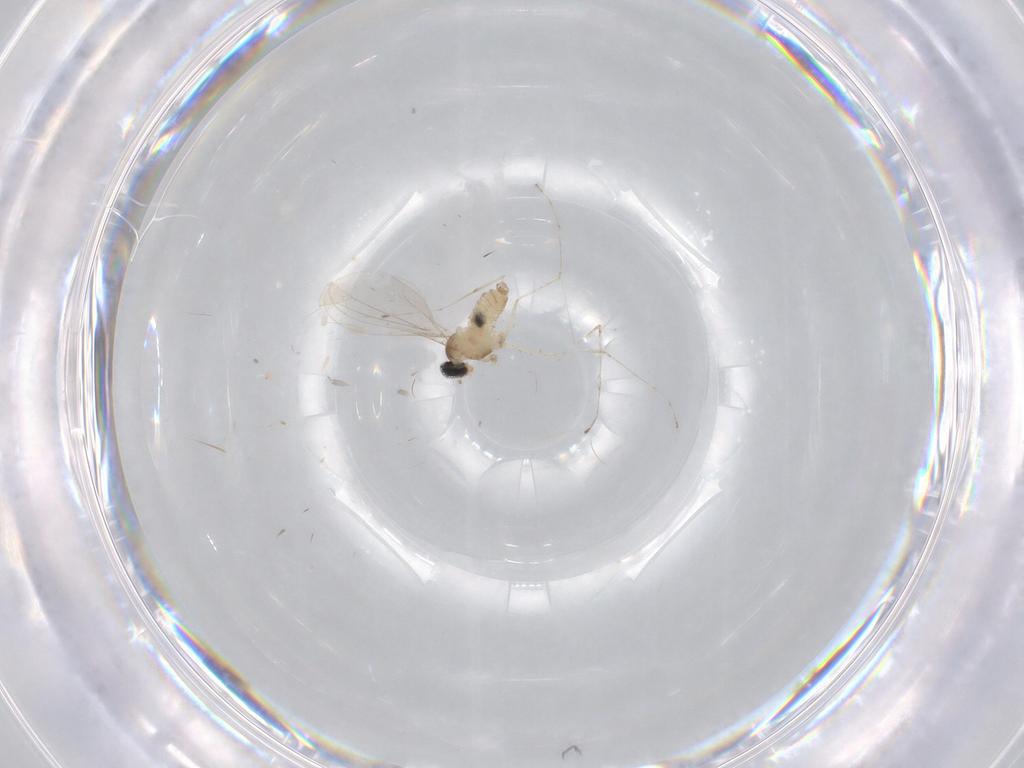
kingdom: Animalia
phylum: Arthropoda
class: Insecta
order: Diptera
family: Cecidomyiidae
